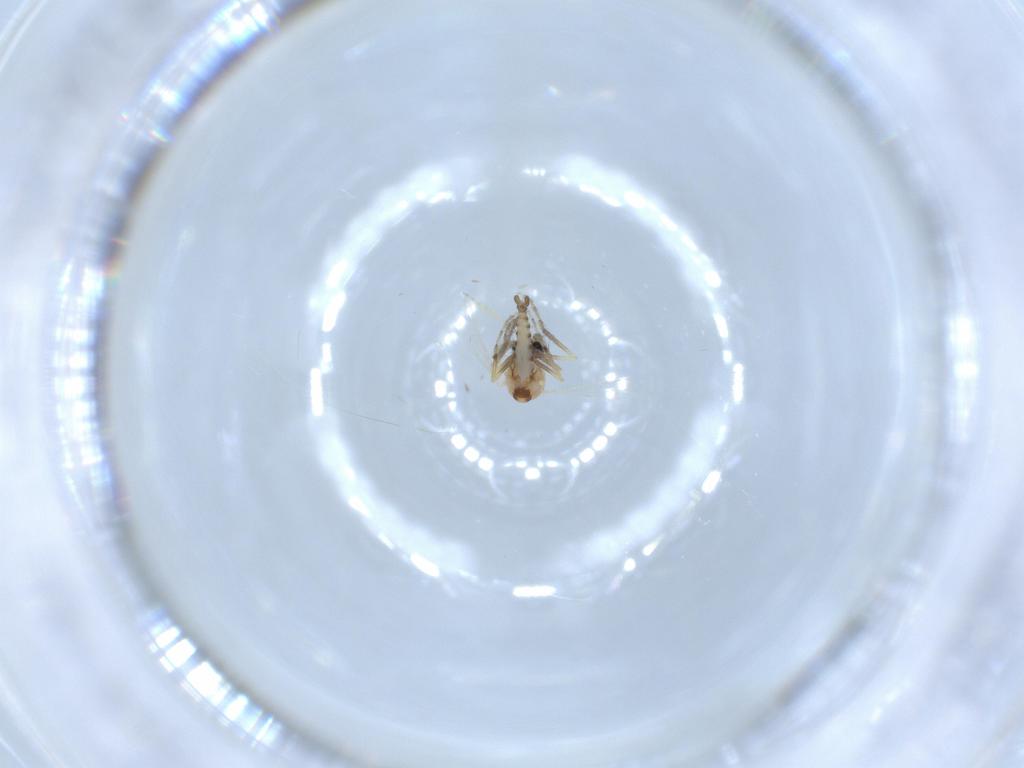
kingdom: Animalia
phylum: Arthropoda
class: Insecta
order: Diptera
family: Ceratopogonidae
